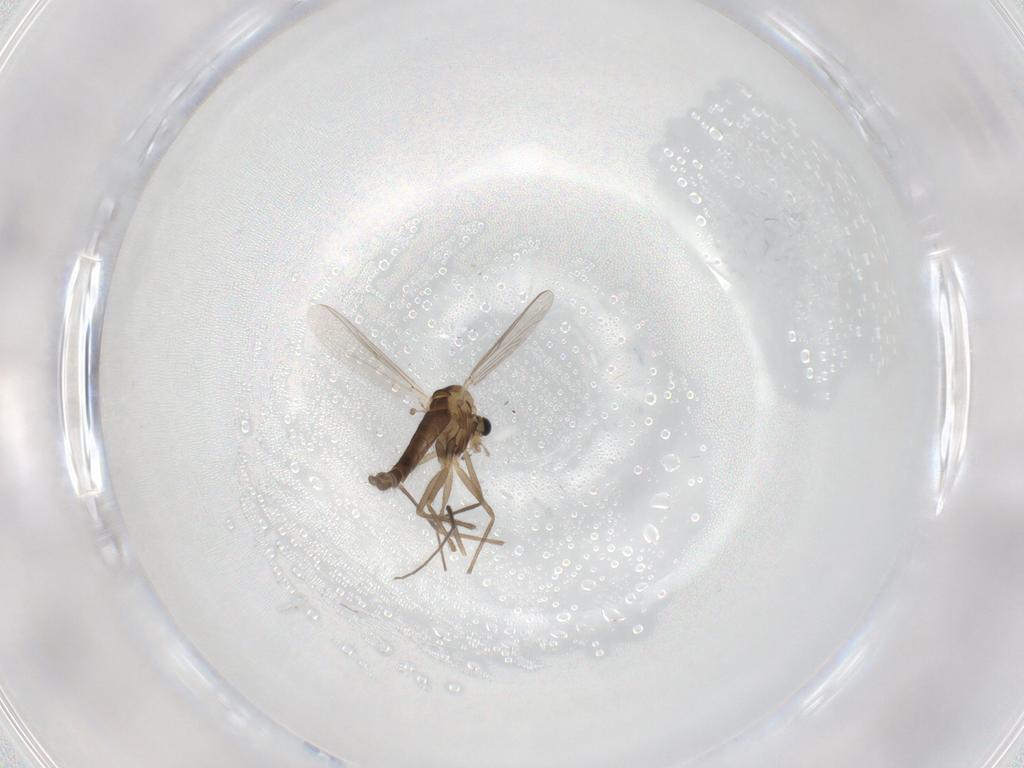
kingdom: Animalia
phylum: Arthropoda
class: Insecta
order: Diptera
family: Chironomidae
